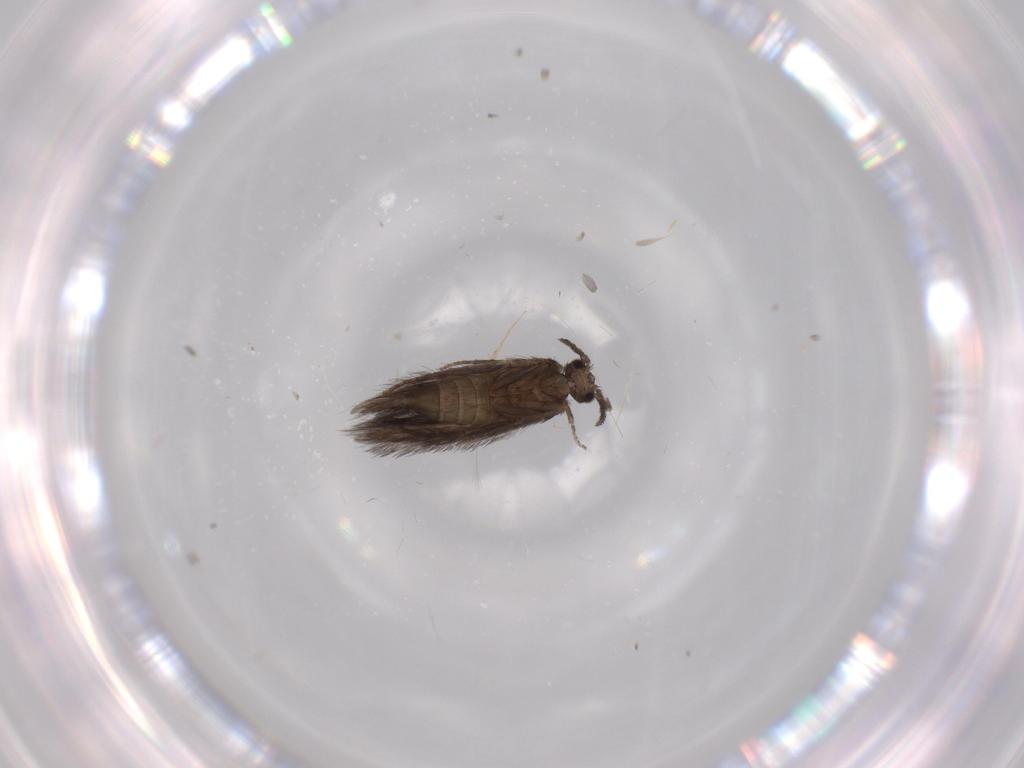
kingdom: Animalia
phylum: Arthropoda
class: Insecta
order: Trichoptera
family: Hydroptilidae
